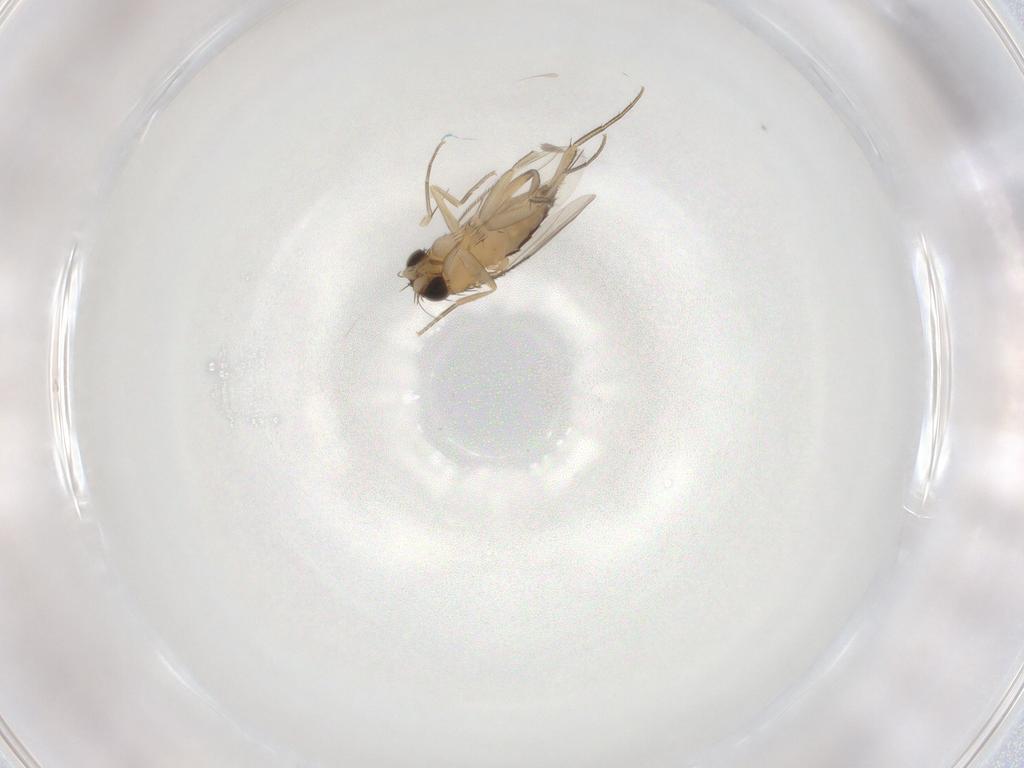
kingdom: Animalia
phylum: Arthropoda
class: Insecta
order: Diptera
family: Phoridae
